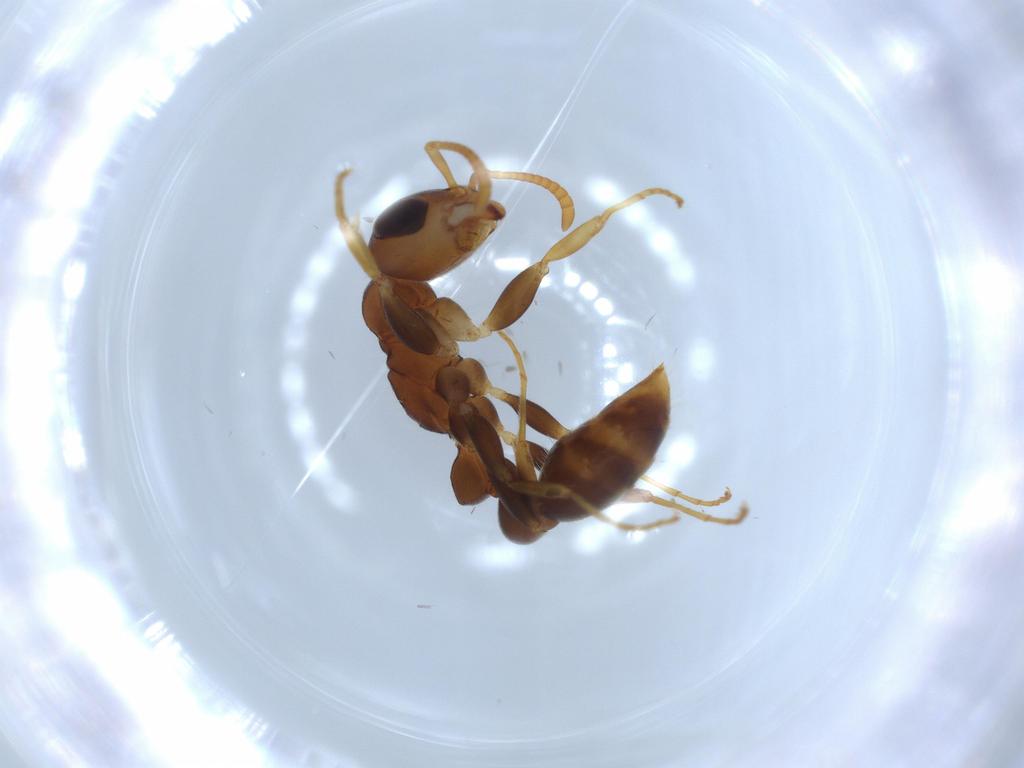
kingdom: Animalia
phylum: Arthropoda
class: Insecta
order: Hymenoptera
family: Formicidae
